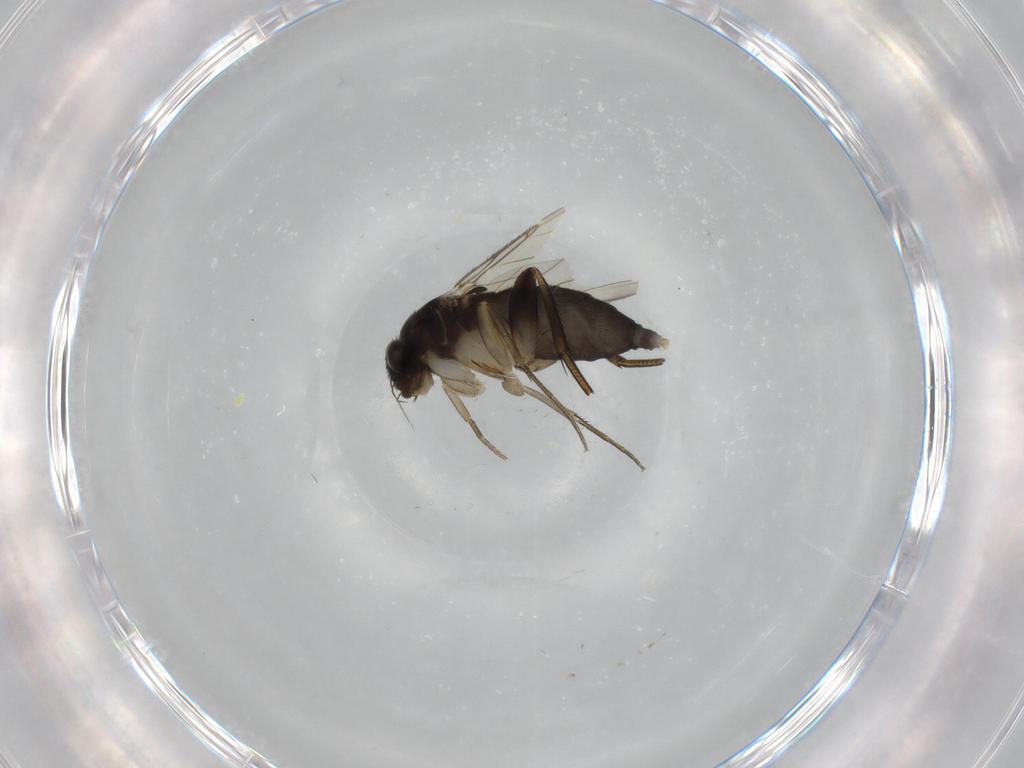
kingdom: Animalia
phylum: Arthropoda
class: Insecta
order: Diptera
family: Phoridae
